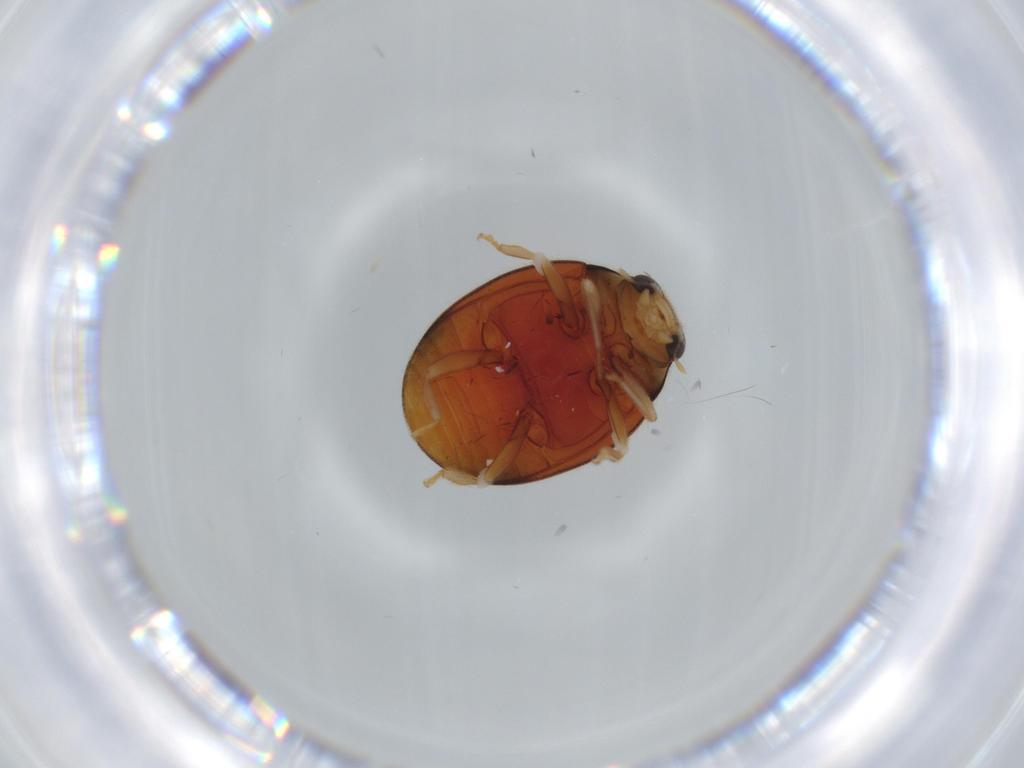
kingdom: Animalia
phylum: Arthropoda
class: Insecta
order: Coleoptera
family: Coccinellidae
